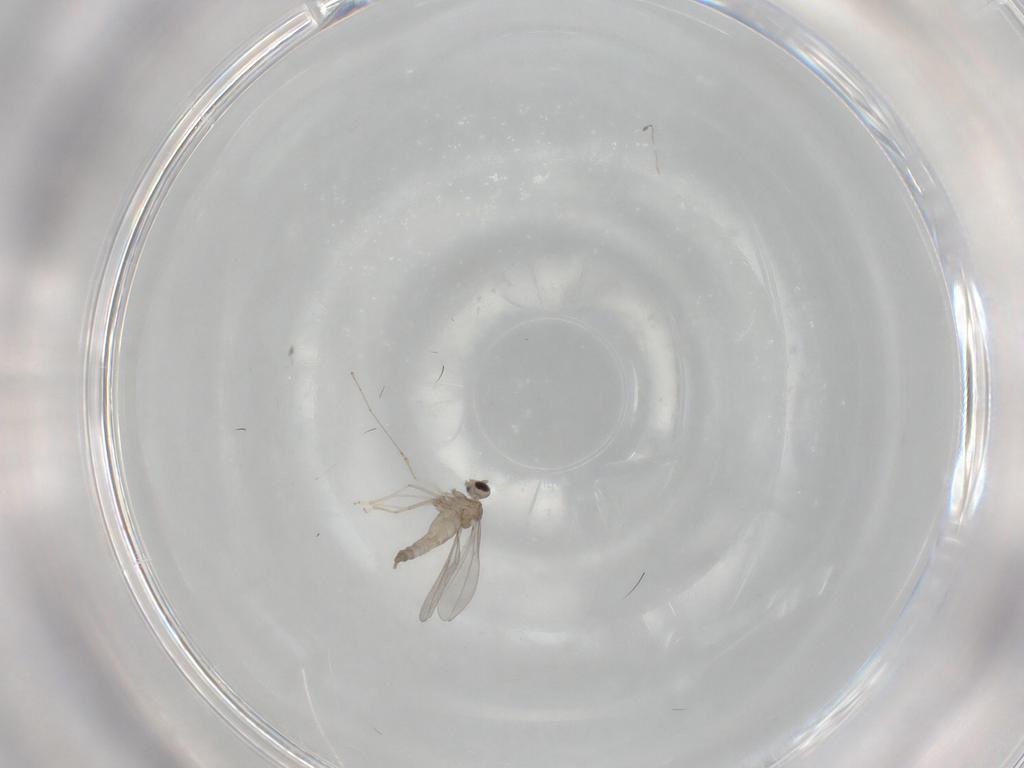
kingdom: Animalia
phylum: Arthropoda
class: Insecta
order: Diptera
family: Cecidomyiidae
